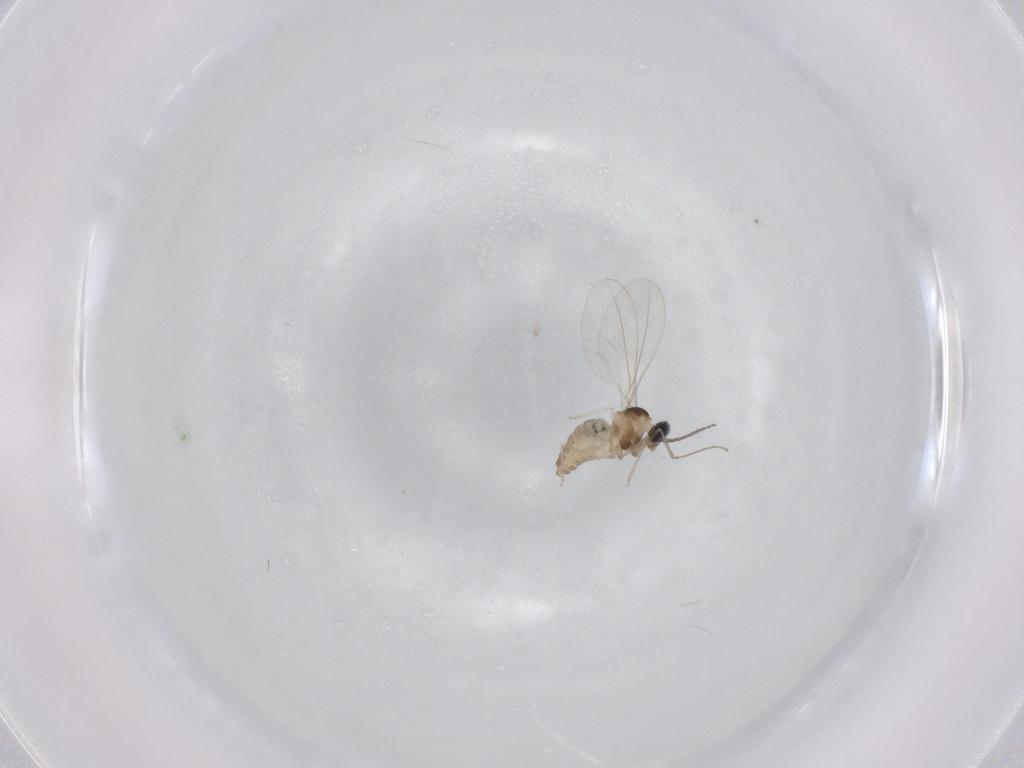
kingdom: Animalia
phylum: Arthropoda
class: Insecta
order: Diptera
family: Cecidomyiidae
